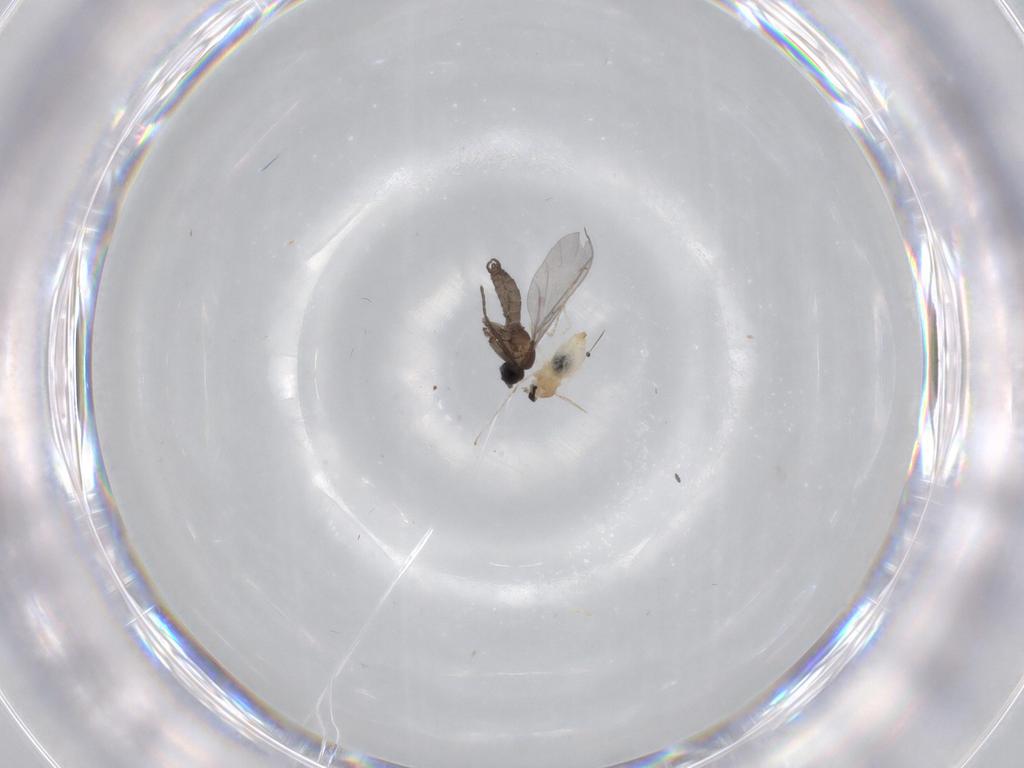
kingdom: Animalia
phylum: Arthropoda
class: Insecta
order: Diptera
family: Sciaridae
